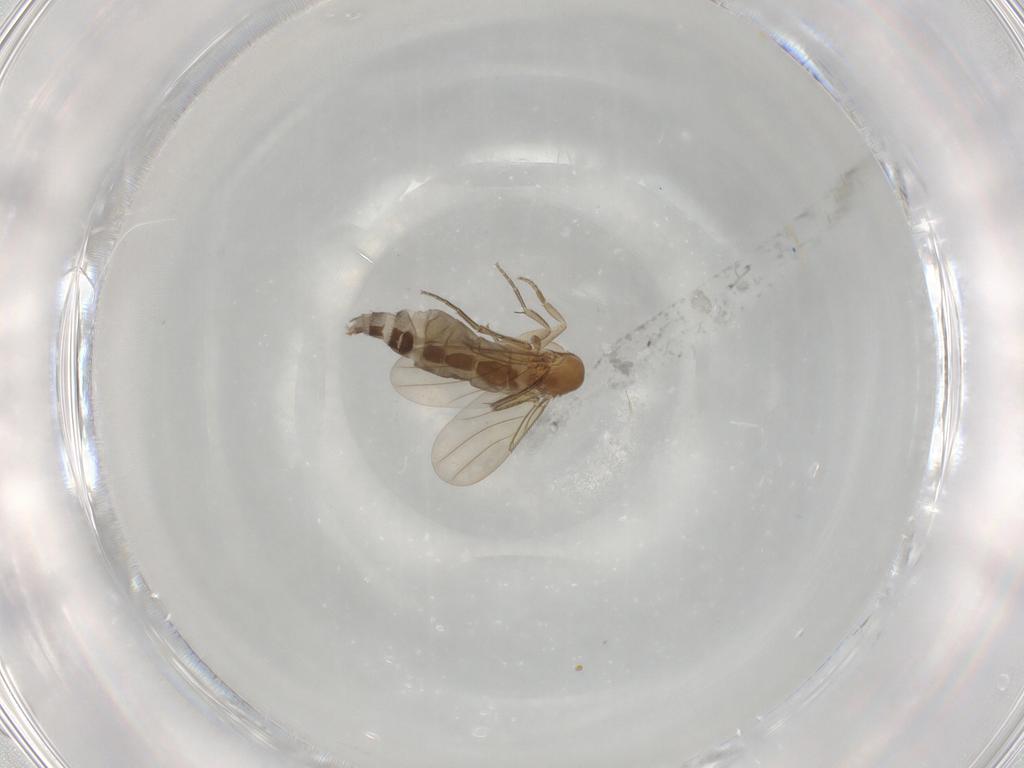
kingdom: Animalia
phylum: Arthropoda
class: Insecta
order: Diptera
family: Phoridae
